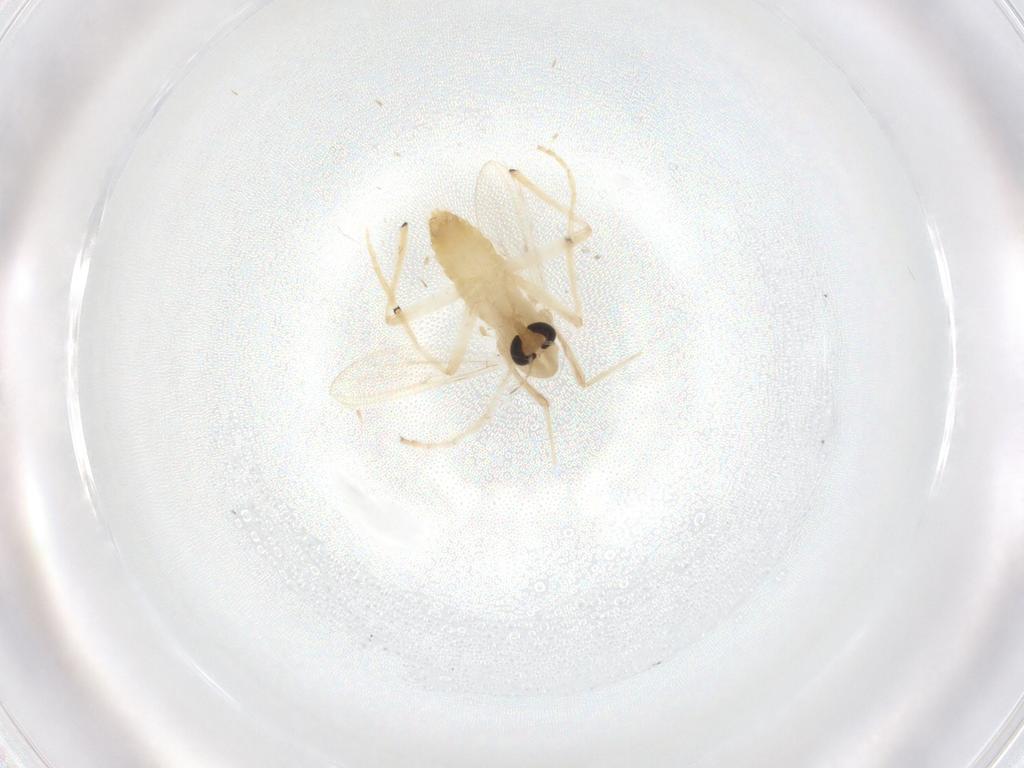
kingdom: Animalia
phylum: Arthropoda
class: Insecta
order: Diptera
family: Chironomidae
